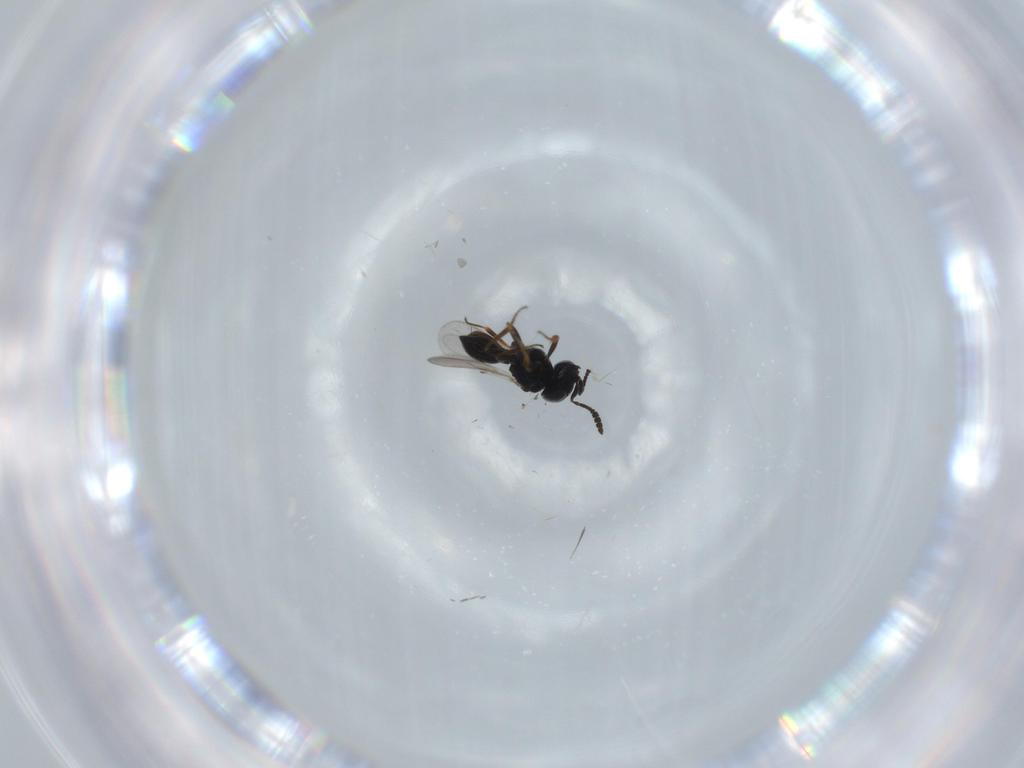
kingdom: Animalia
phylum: Arthropoda
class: Insecta
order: Hymenoptera
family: Scelionidae
